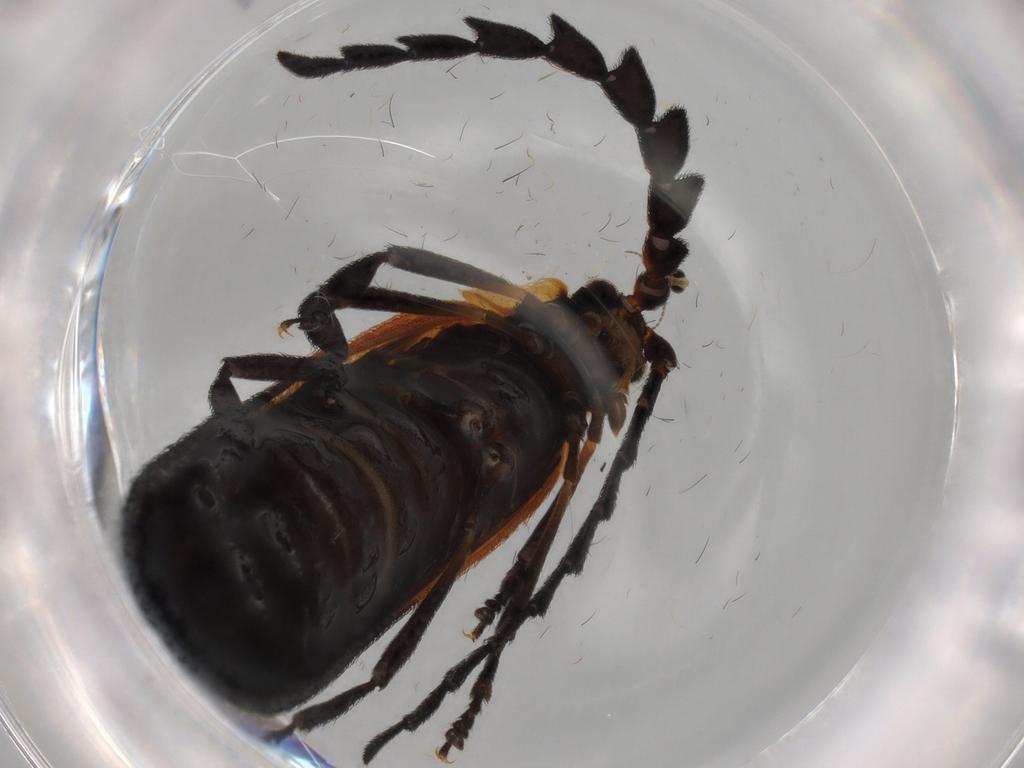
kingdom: Animalia
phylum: Arthropoda
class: Insecta
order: Coleoptera
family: Lycidae
